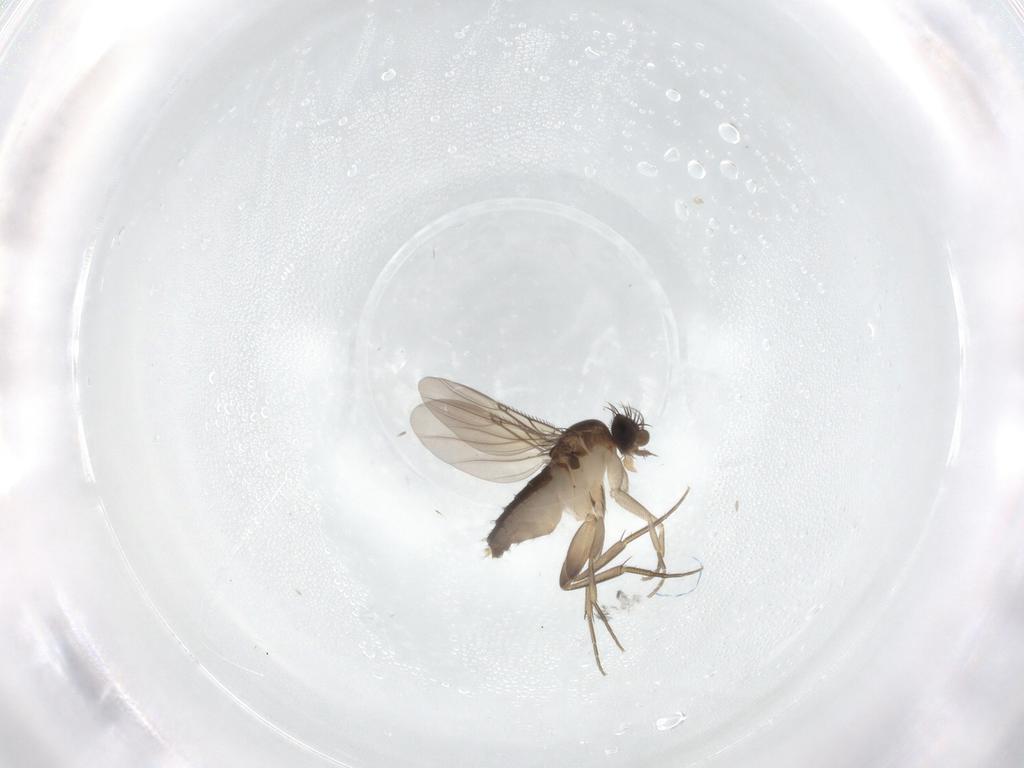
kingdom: Animalia
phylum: Arthropoda
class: Insecta
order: Diptera
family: Phoridae
